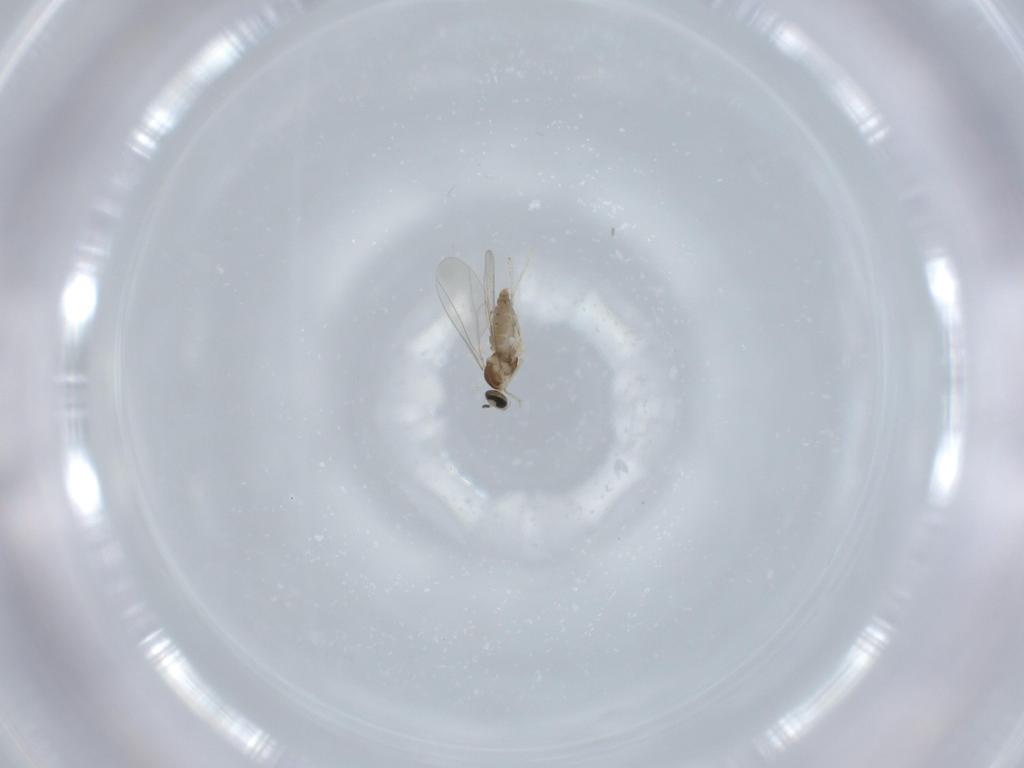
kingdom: Animalia
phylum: Arthropoda
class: Insecta
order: Diptera
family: Cecidomyiidae
